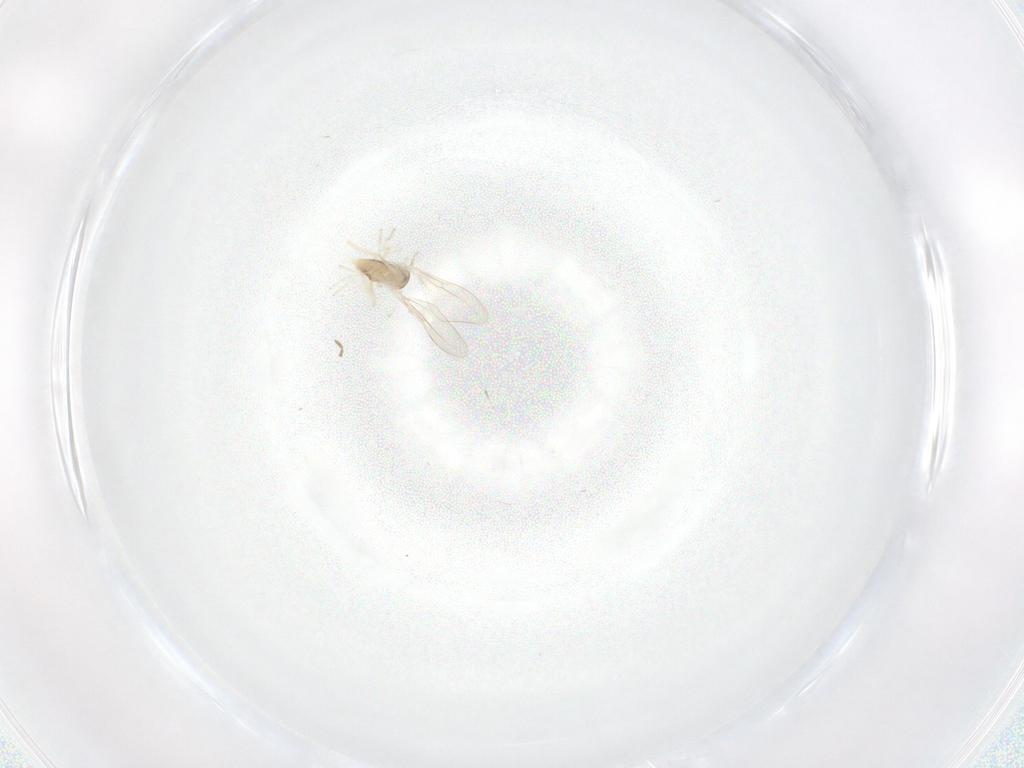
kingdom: Animalia
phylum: Arthropoda
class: Insecta
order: Diptera
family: Cecidomyiidae
